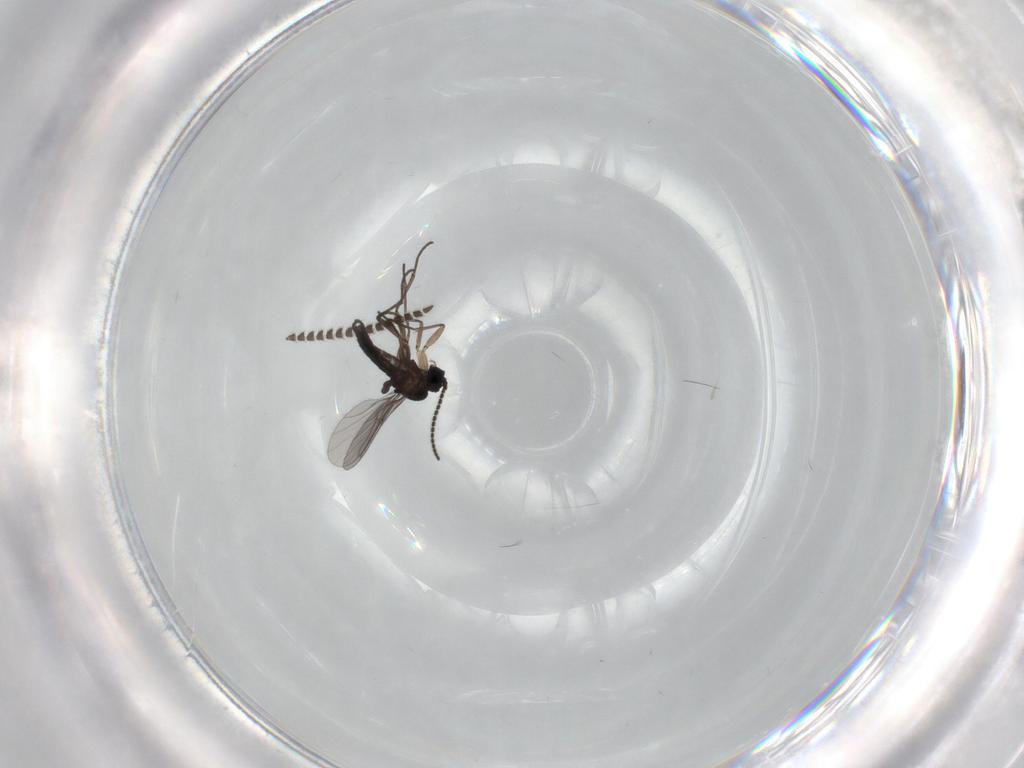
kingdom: Animalia
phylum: Arthropoda
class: Insecta
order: Diptera
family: Sciaridae
